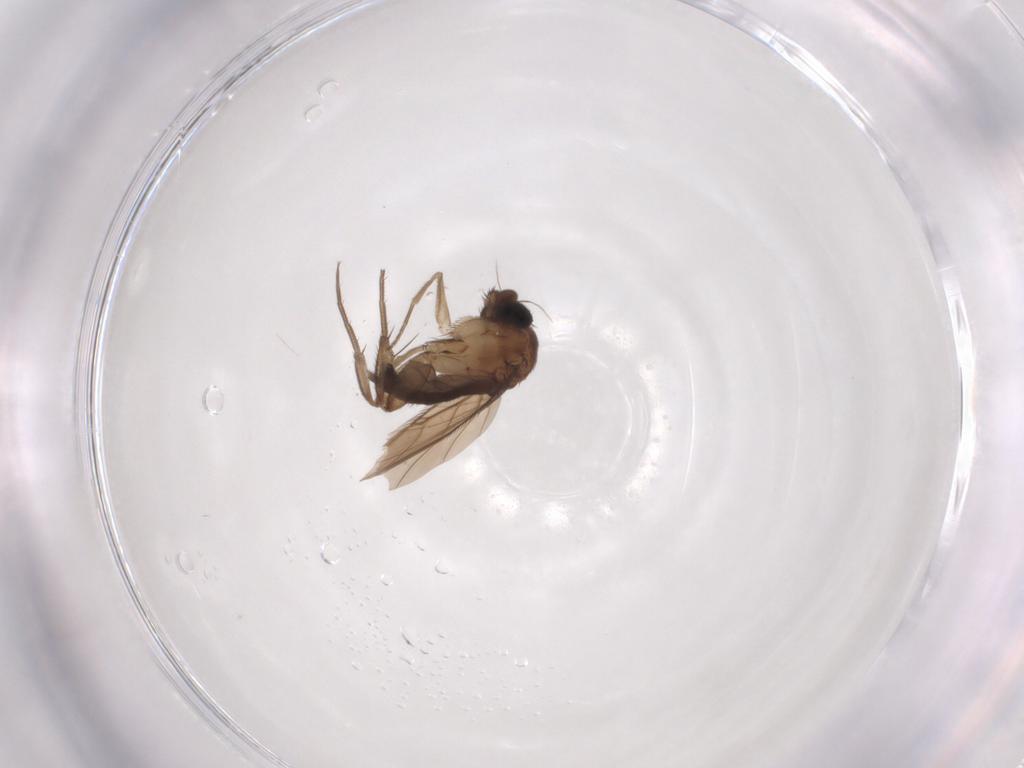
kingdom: Animalia
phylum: Arthropoda
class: Insecta
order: Diptera
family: Phoridae
